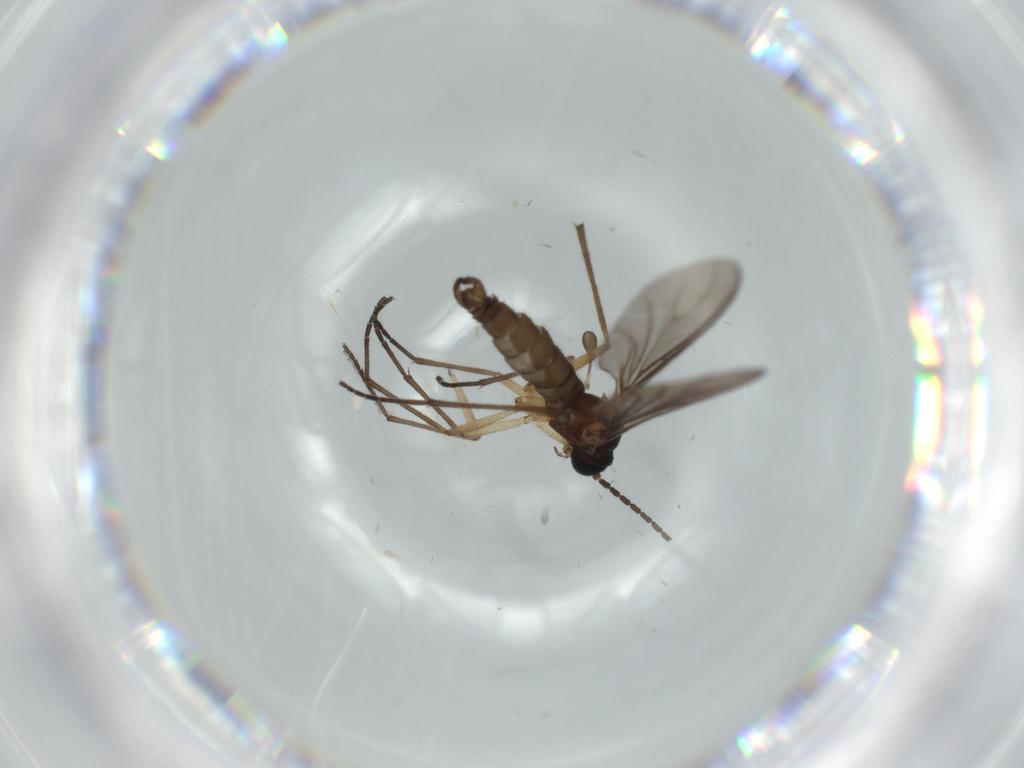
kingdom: Animalia
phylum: Arthropoda
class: Insecta
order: Diptera
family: Sciaridae
